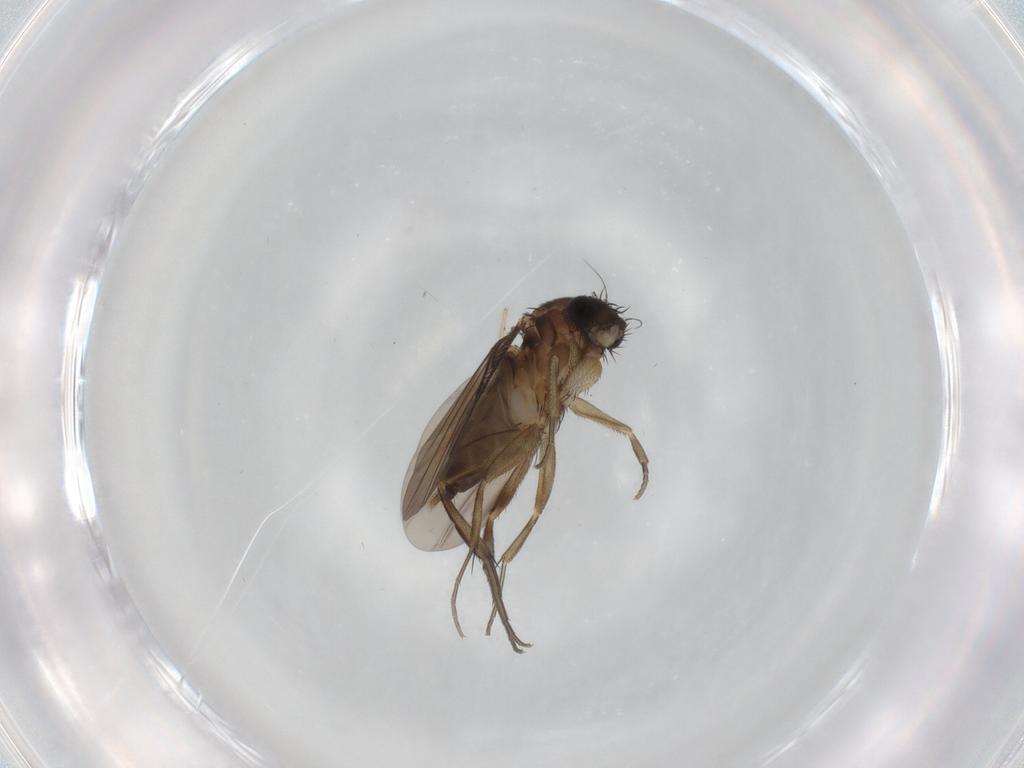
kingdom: Animalia
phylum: Arthropoda
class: Insecta
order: Diptera
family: Phoridae
